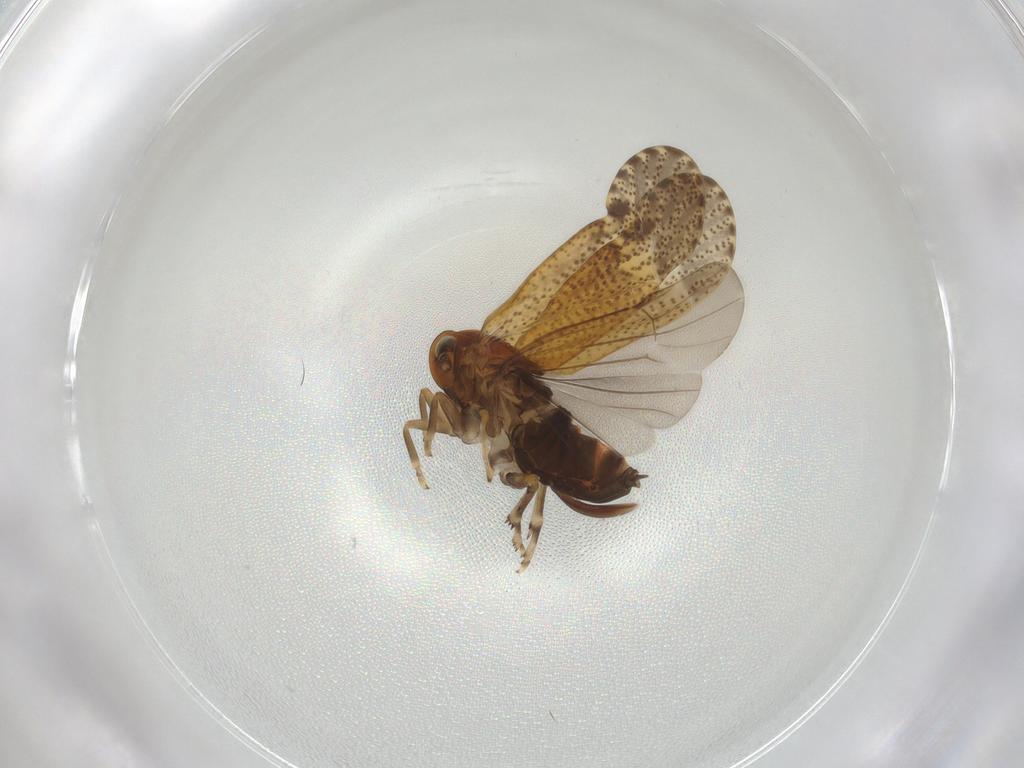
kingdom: Animalia
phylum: Arthropoda
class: Insecta
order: Hemiptera
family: Delphacidae
